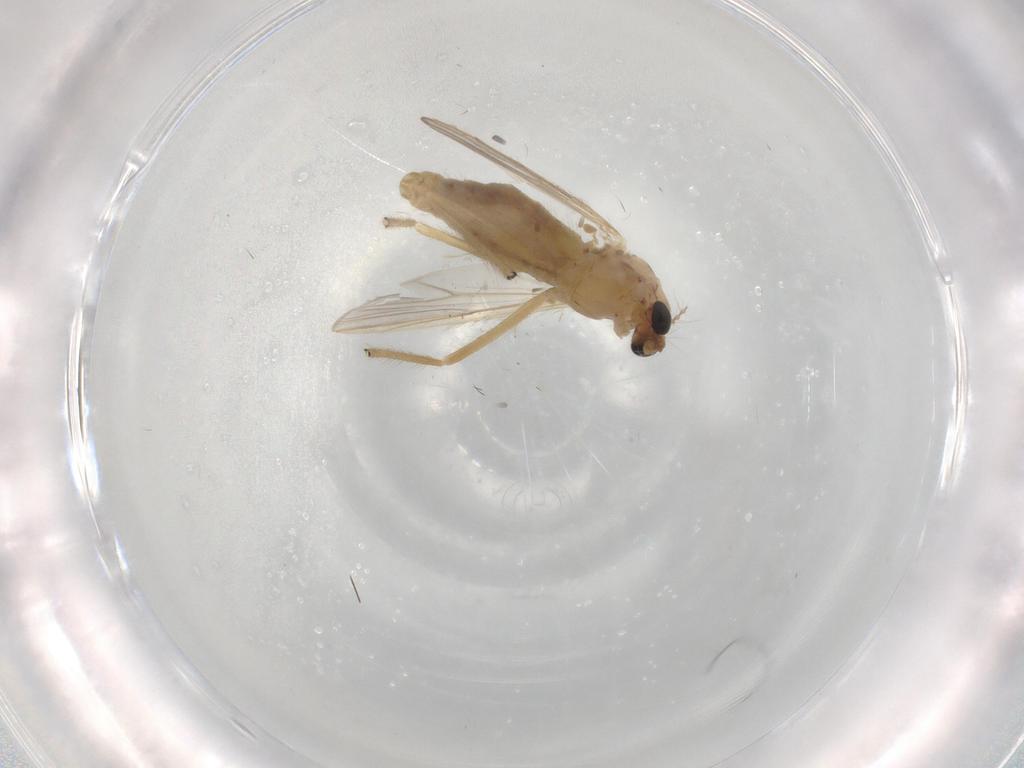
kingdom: Animalia
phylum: Arthropoda
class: Insecta
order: Diptera
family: Chironomidae
